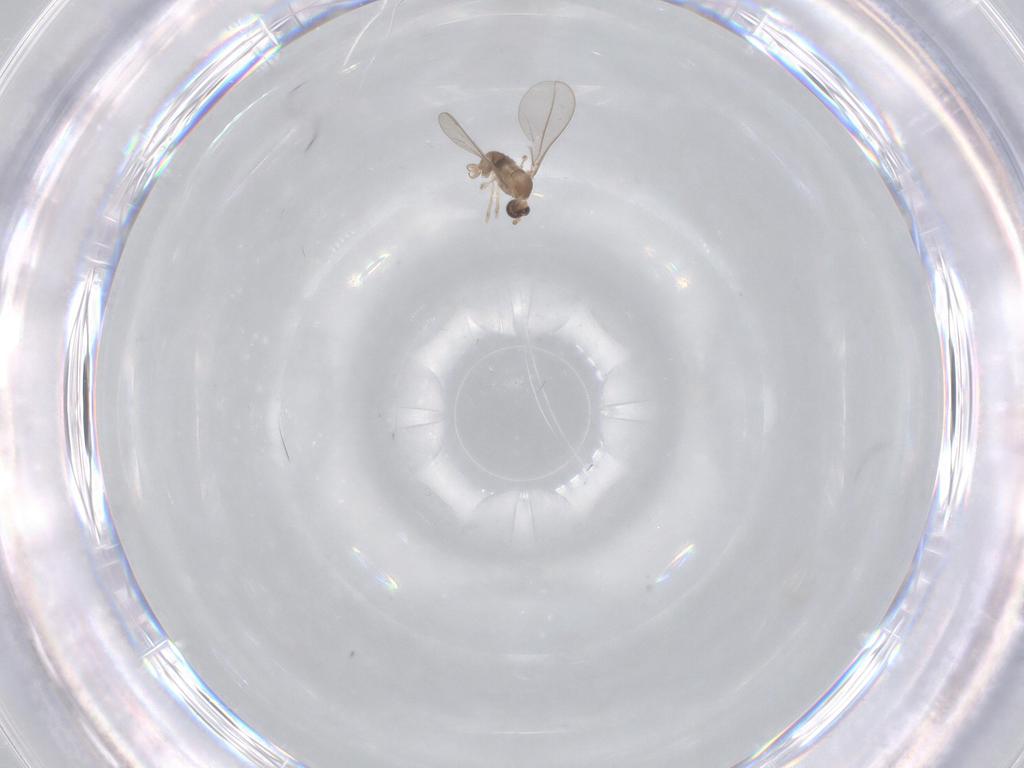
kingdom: Animalia
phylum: Arthropoda
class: Insecta
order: Diptera
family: Cecidomyiidae
